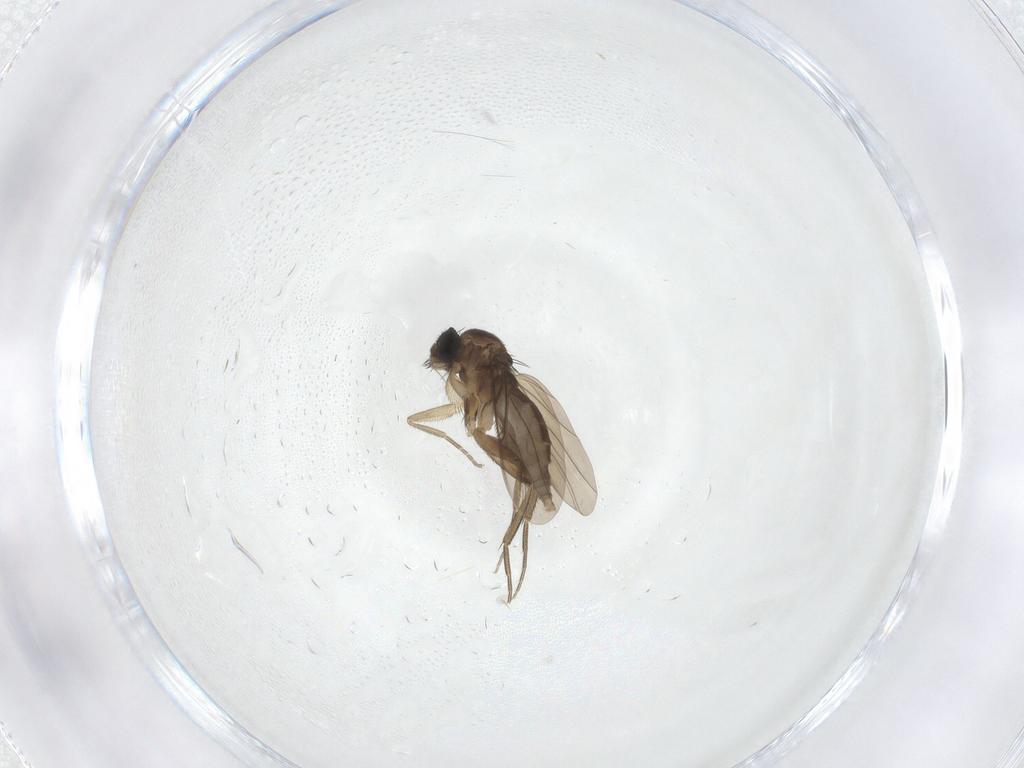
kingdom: Animalia
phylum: Arthropoda
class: Insecta
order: Diptera
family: Phoridae
